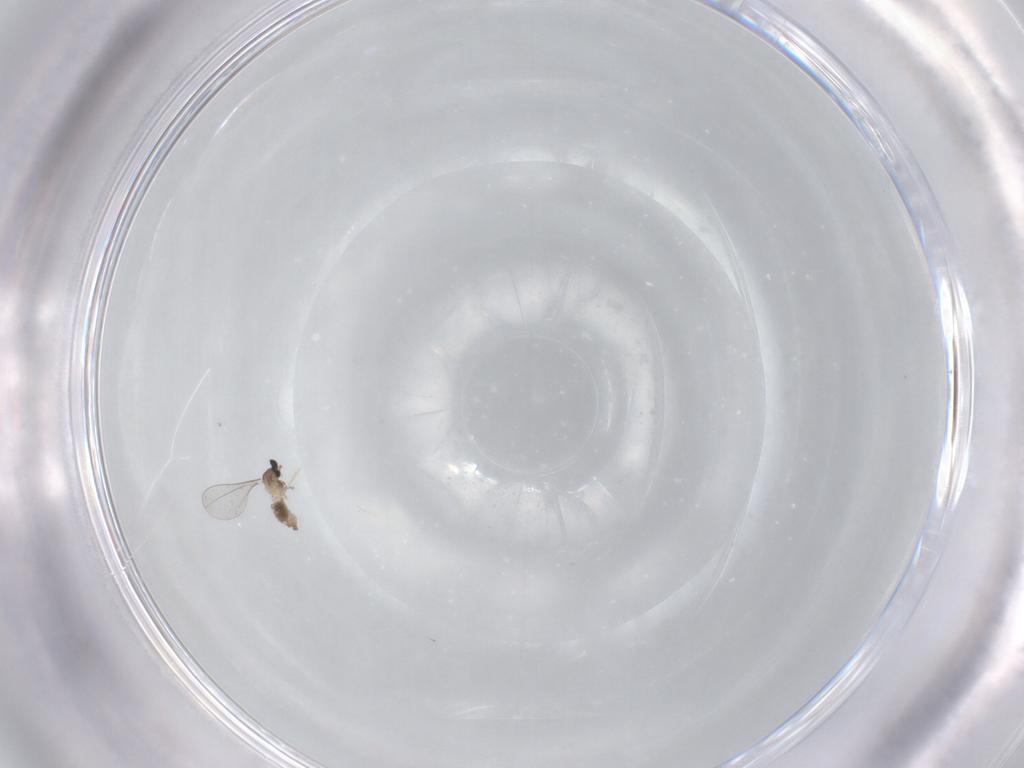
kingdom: Animalia
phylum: Arthropoda
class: Insecta
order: Diptera
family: Cecidomyiidae
